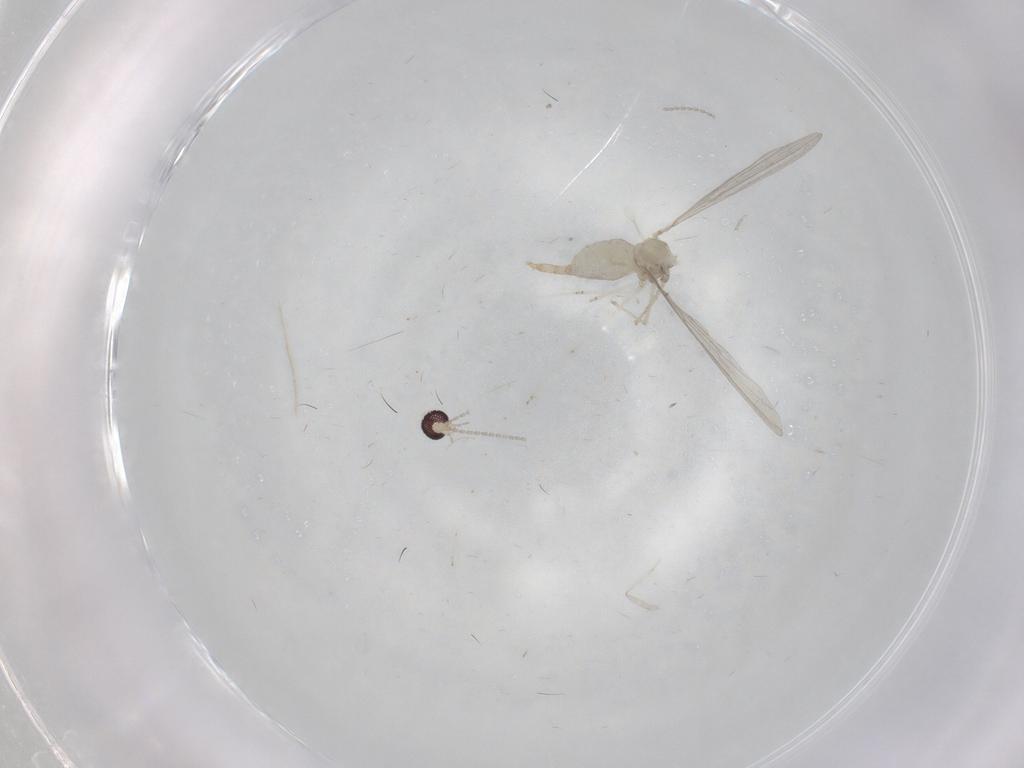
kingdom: Animalia
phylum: Arthropoda
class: Insecta
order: Diptera
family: Cecidomyiidae
